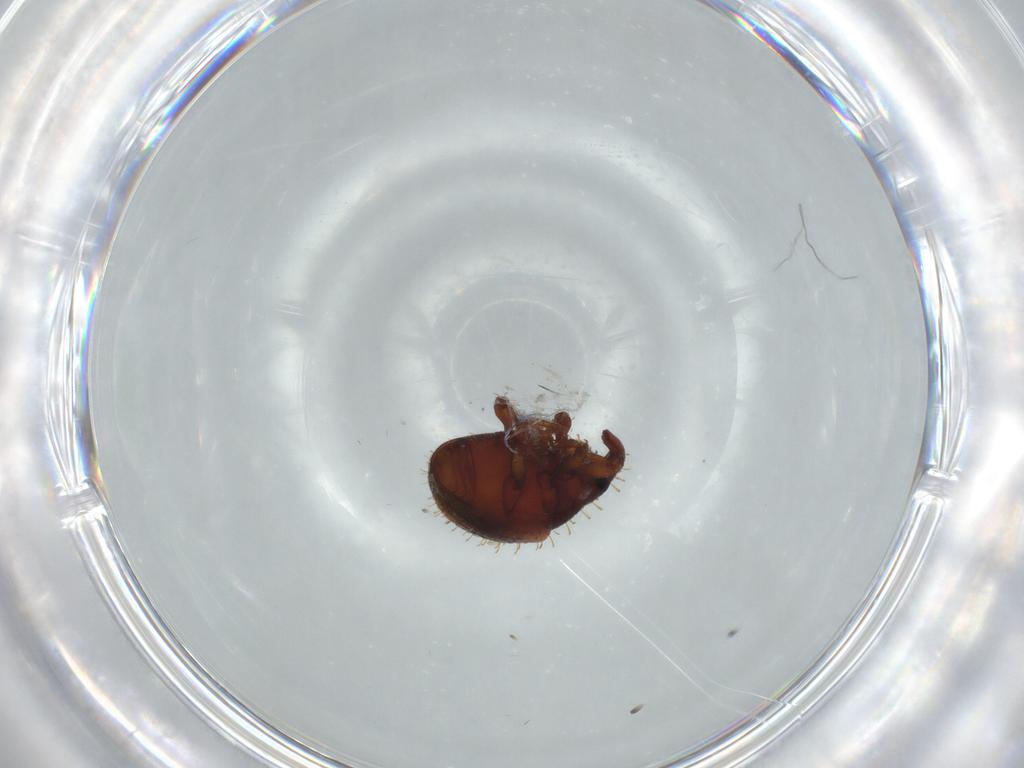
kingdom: Animalia
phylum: Arthropoda
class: Insecta
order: Coleoptera
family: Curculionidae
